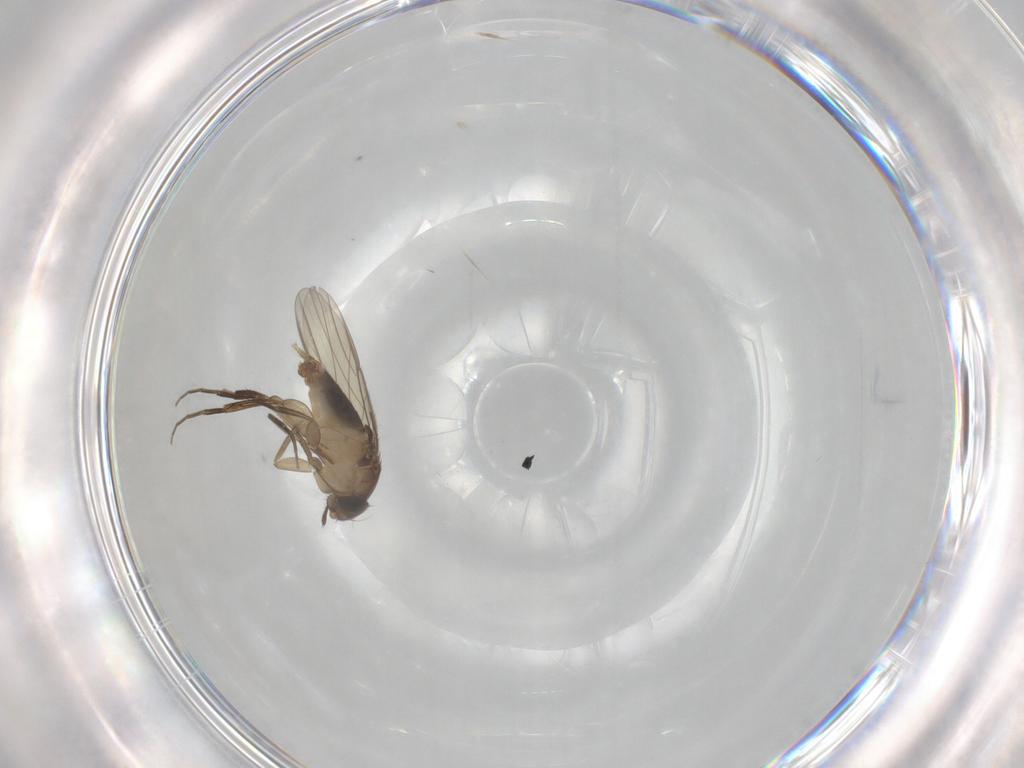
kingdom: Animalia
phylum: Arthropoda
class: Insecta
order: Diptera
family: Phoridae
